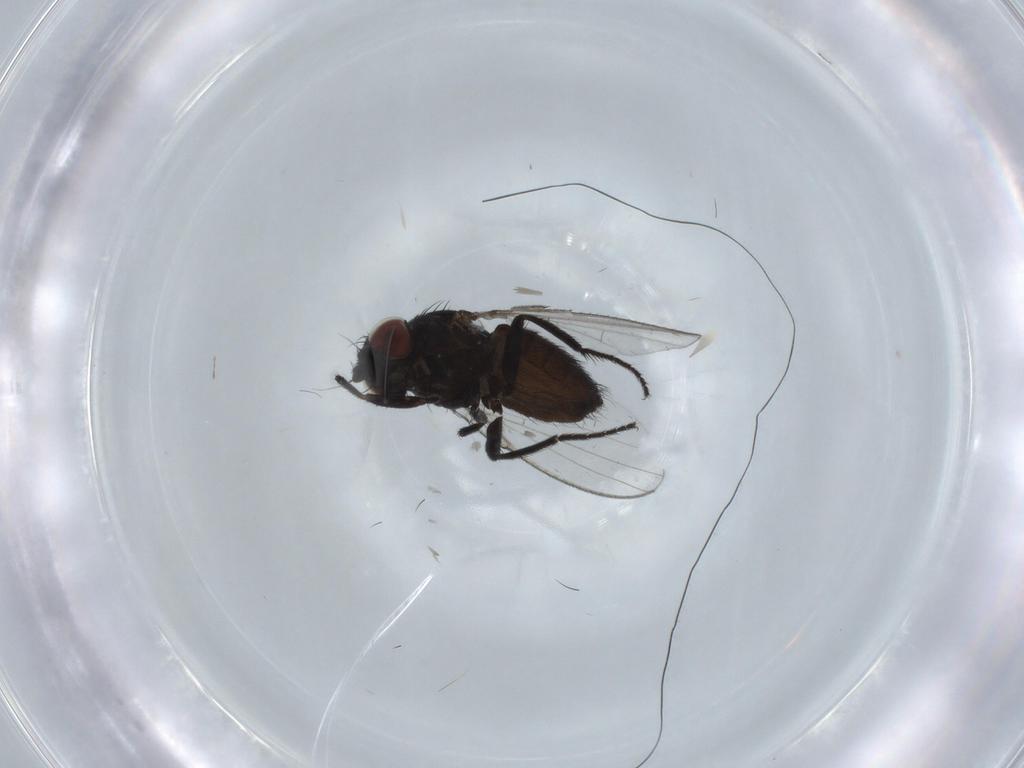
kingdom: Animalia
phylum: Arthropoda
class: Insecta
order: Diptera
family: Milichiidae
